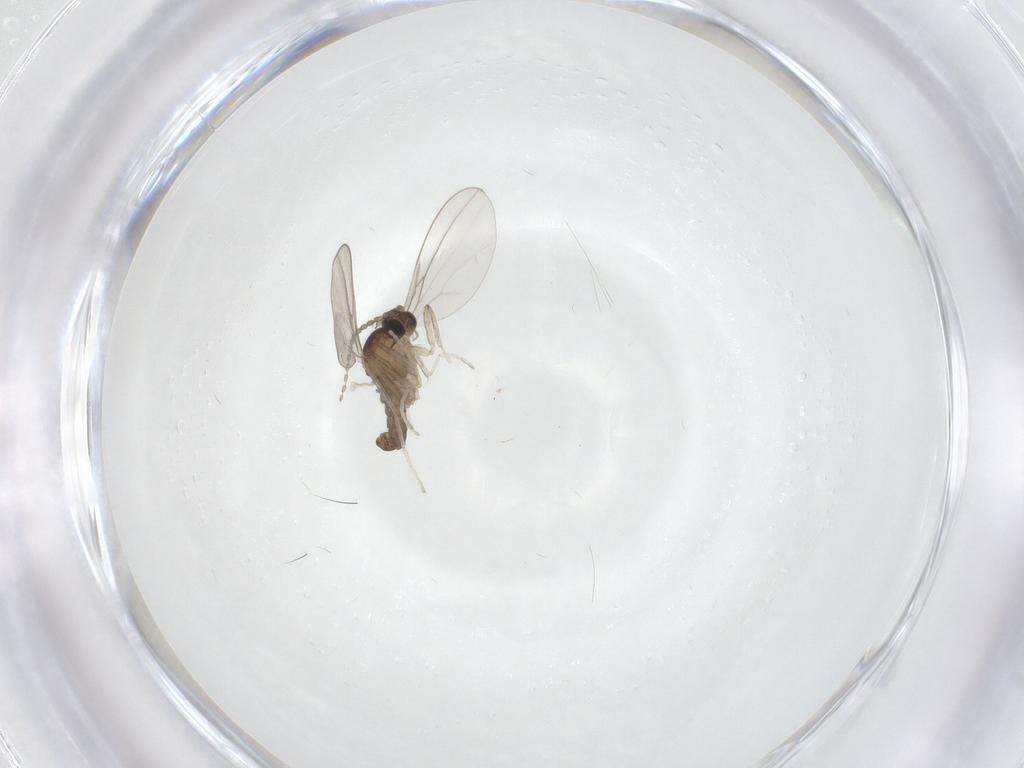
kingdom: Animalia
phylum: Arthropoda
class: Insecta
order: Diptera
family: Cecidomyiidae
